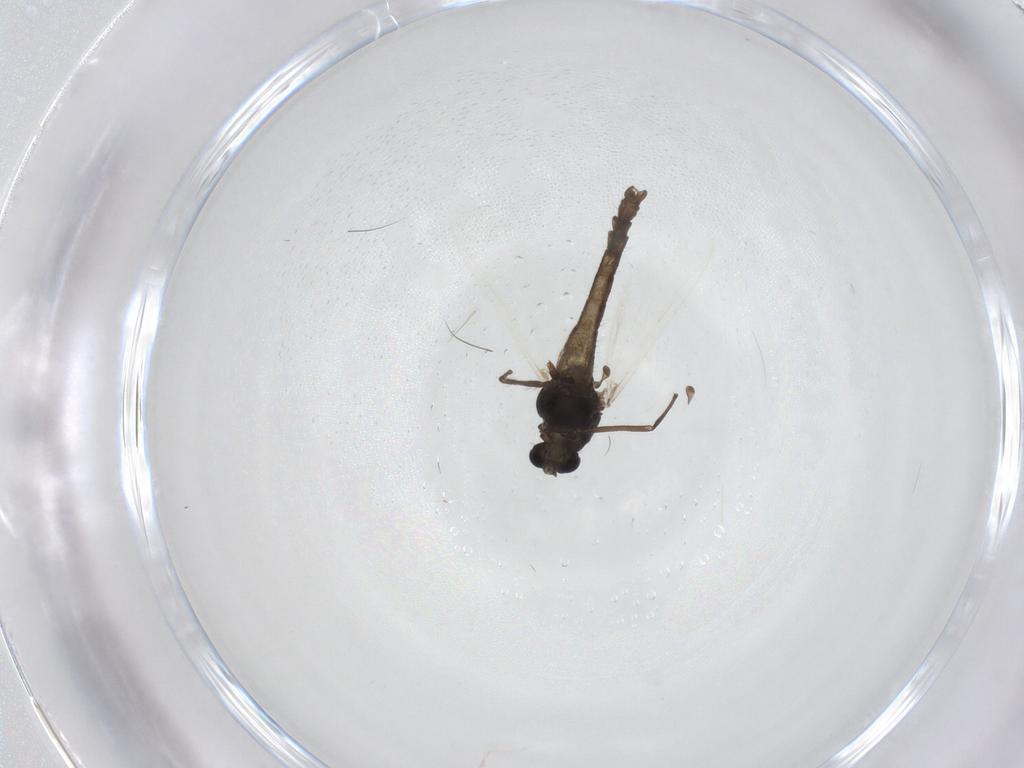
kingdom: Animalia
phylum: Arthropoda
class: Insecta
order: Diptera
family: Chironomidae
